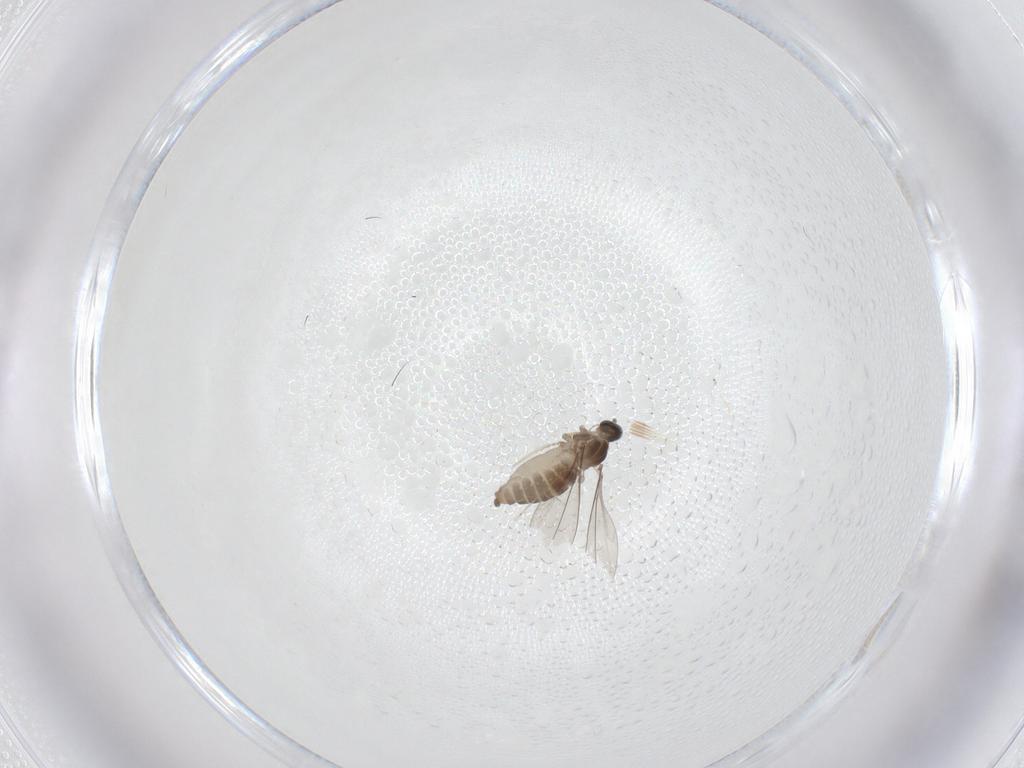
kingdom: Animalia
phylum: Arthropoda
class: Insecta
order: Diptera
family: Cecidomyiidae
